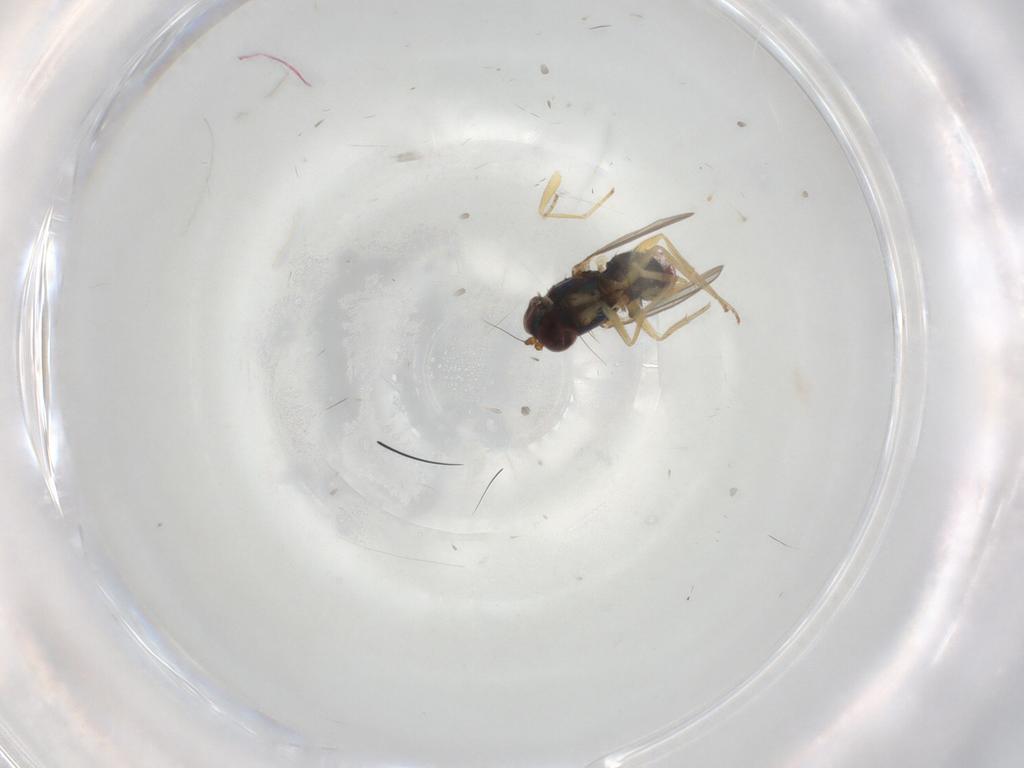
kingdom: Animalia
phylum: Arthropoda
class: Insecta
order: Diptera
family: Dolichopodidae
